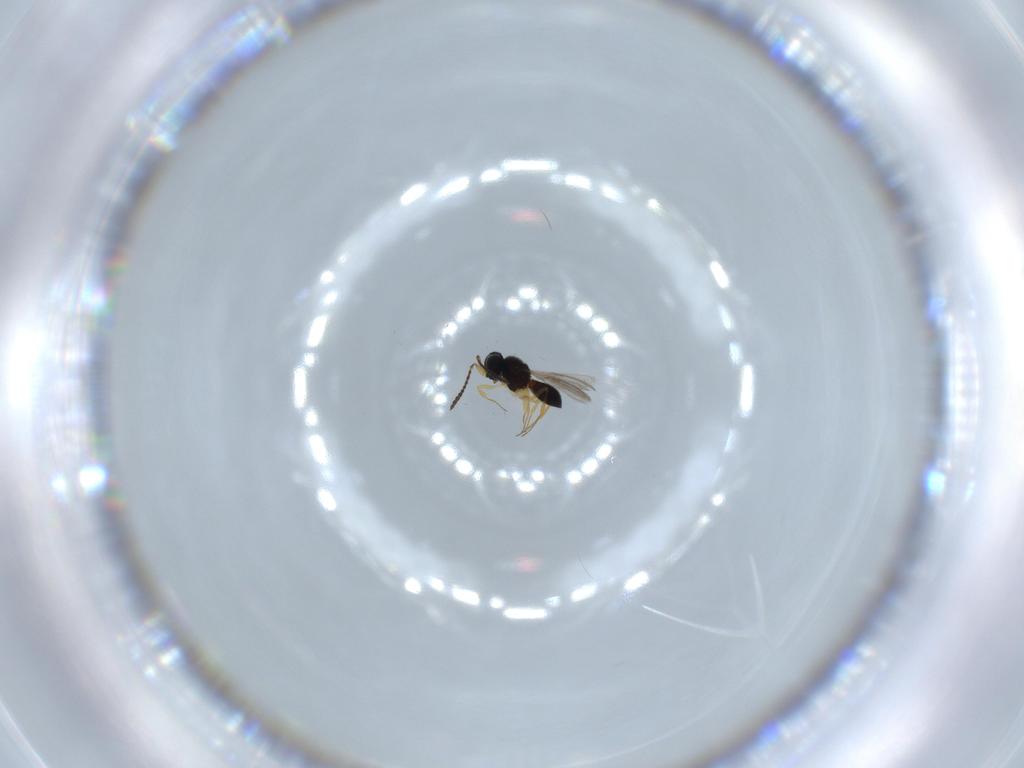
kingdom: Animalia
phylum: Arthropoda
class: Insecta
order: Hymenoptera
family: Scelionidae
